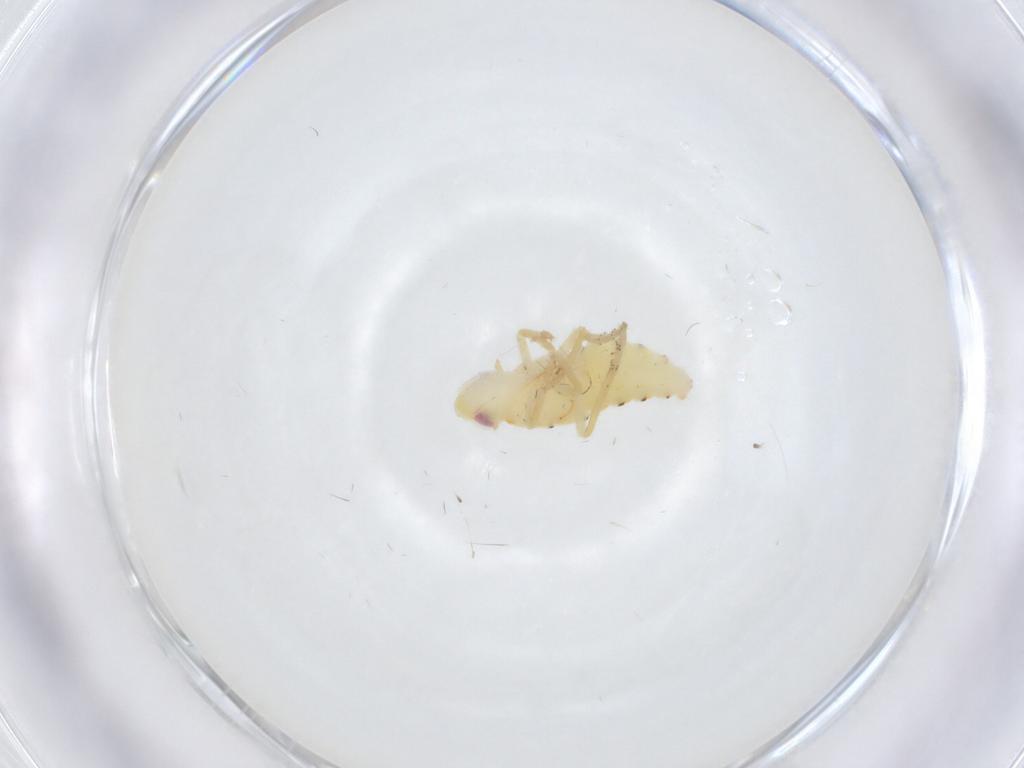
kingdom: Animalia
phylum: Arthropoda
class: Insecta
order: Hemiptera
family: Tropiduchidae
